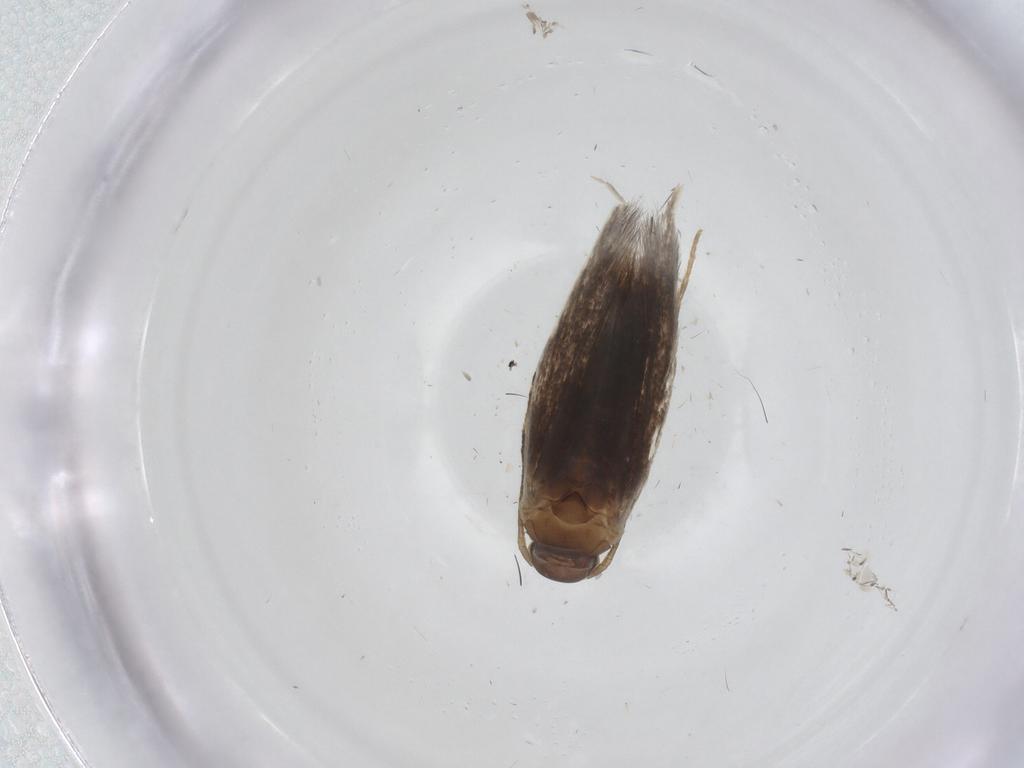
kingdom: Animalia
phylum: Arthropoda
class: Insecta
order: Lepidoptera
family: Elachistidae
